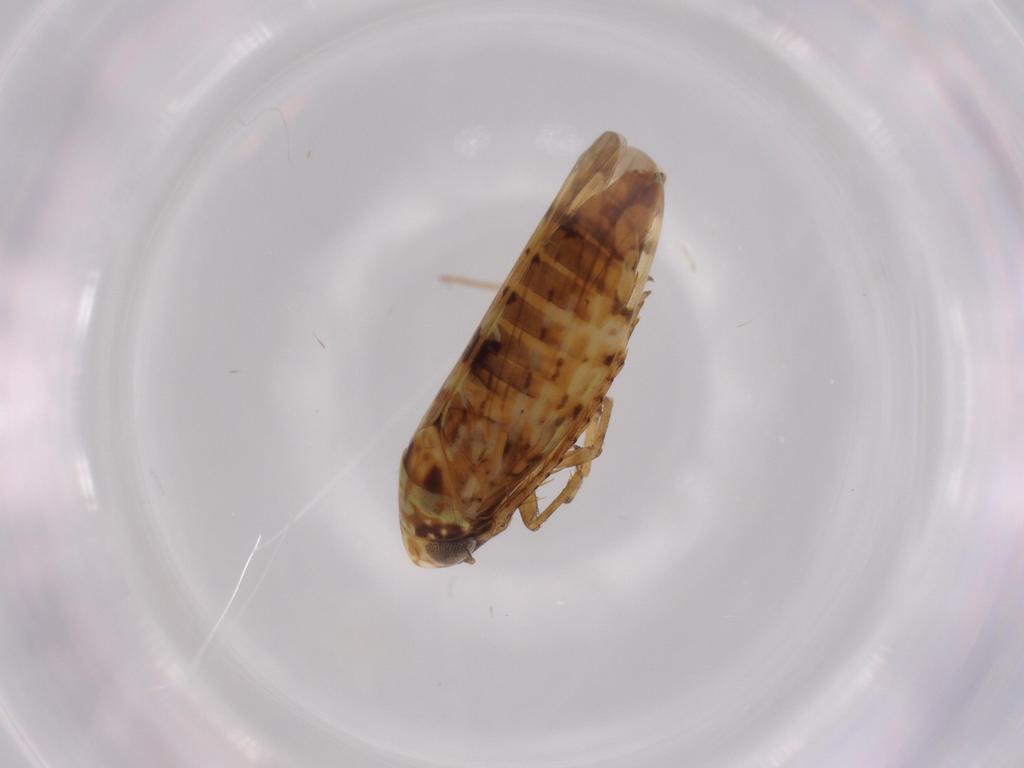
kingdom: Animalia
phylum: Arthropoda
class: Insecta
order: Hemiptera
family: Cicadellidae
